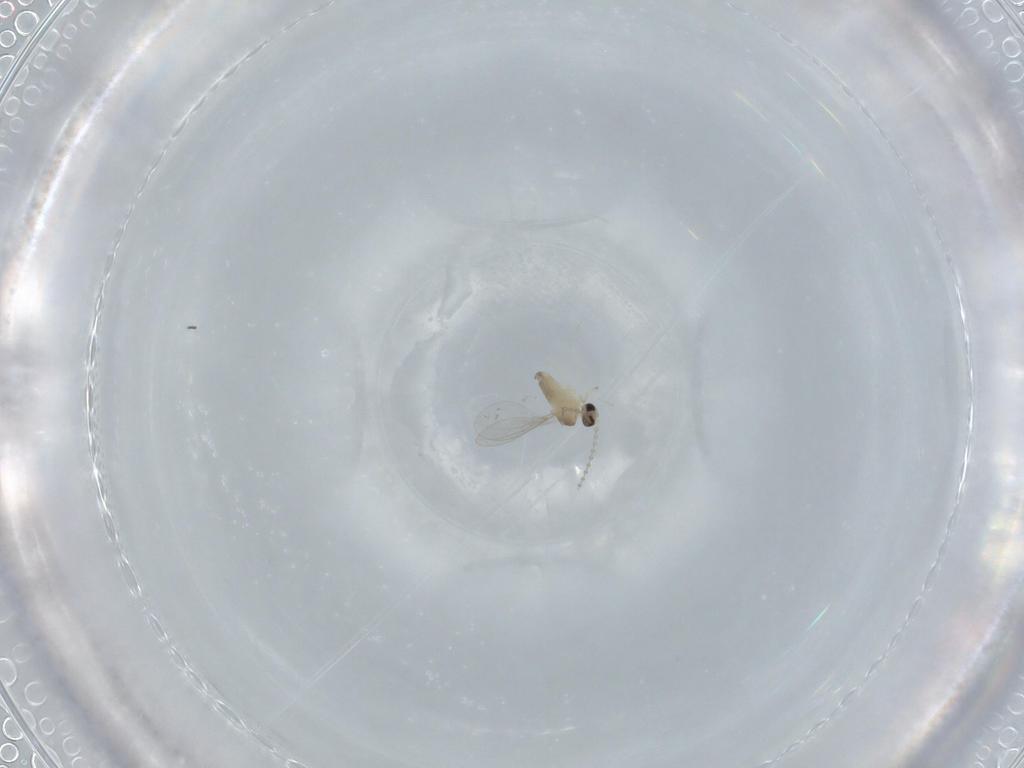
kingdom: Animalia
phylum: Arthropoda
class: Insecta
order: Diptera
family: Cecidomyiidae
